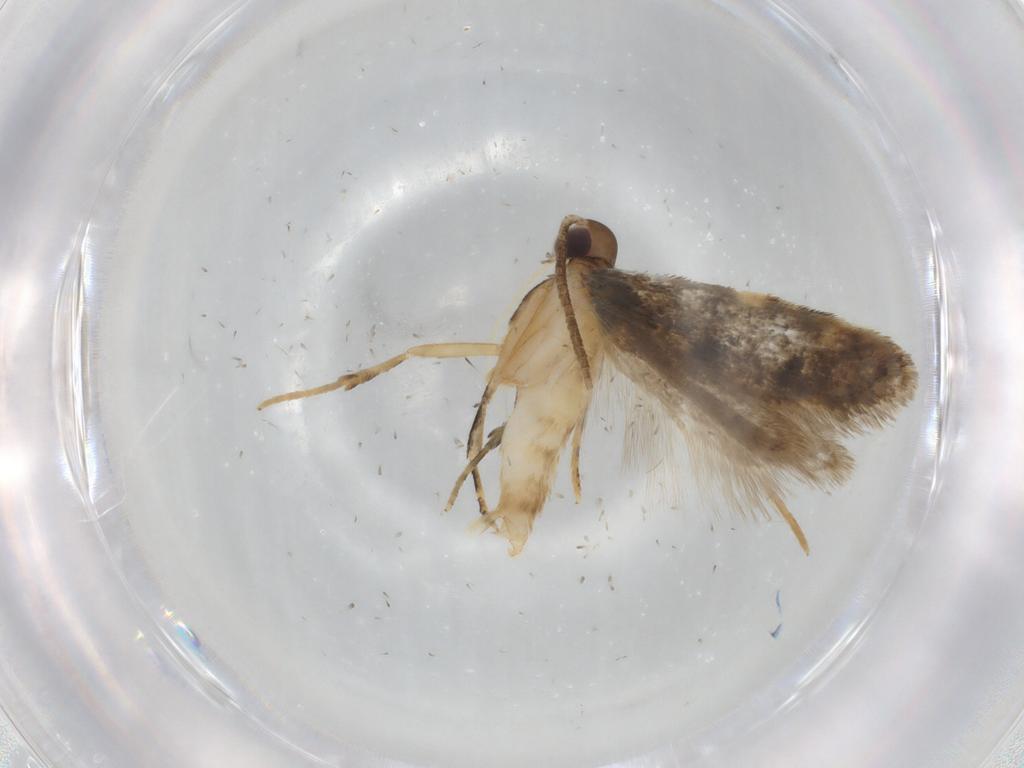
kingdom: Animalia
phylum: Arthropoda
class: Insecta
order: Lepidoptera
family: Autostichidae
